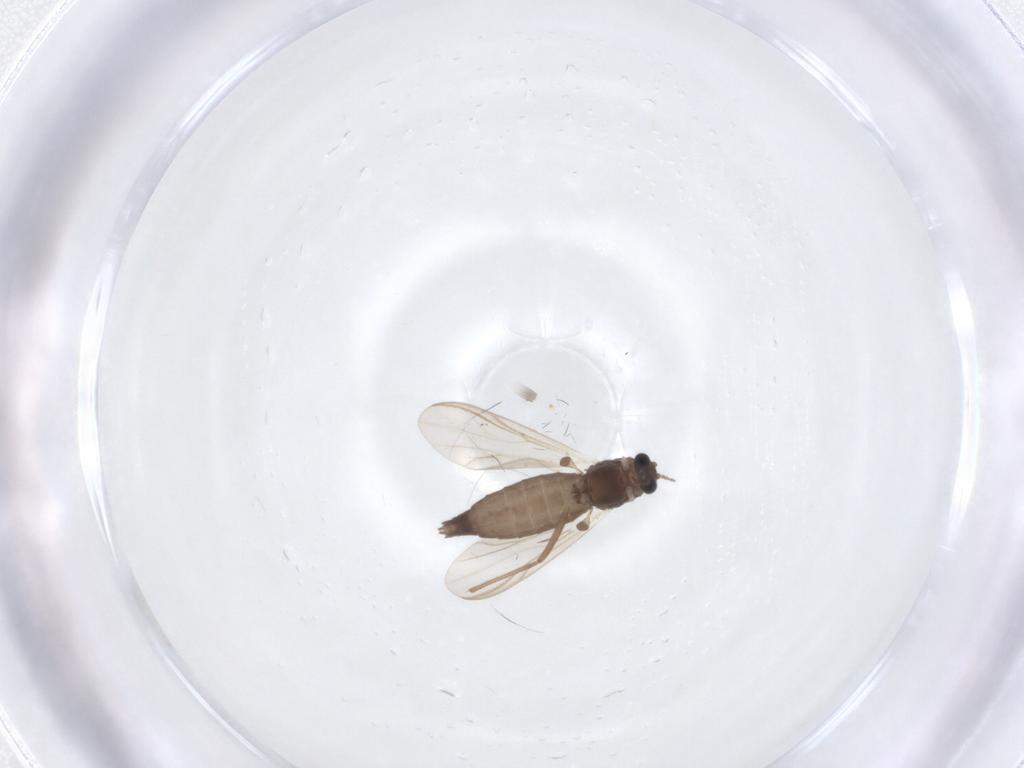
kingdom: Animalia
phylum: Arthropoda
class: Insecta
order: Diptera
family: Chironomidae
